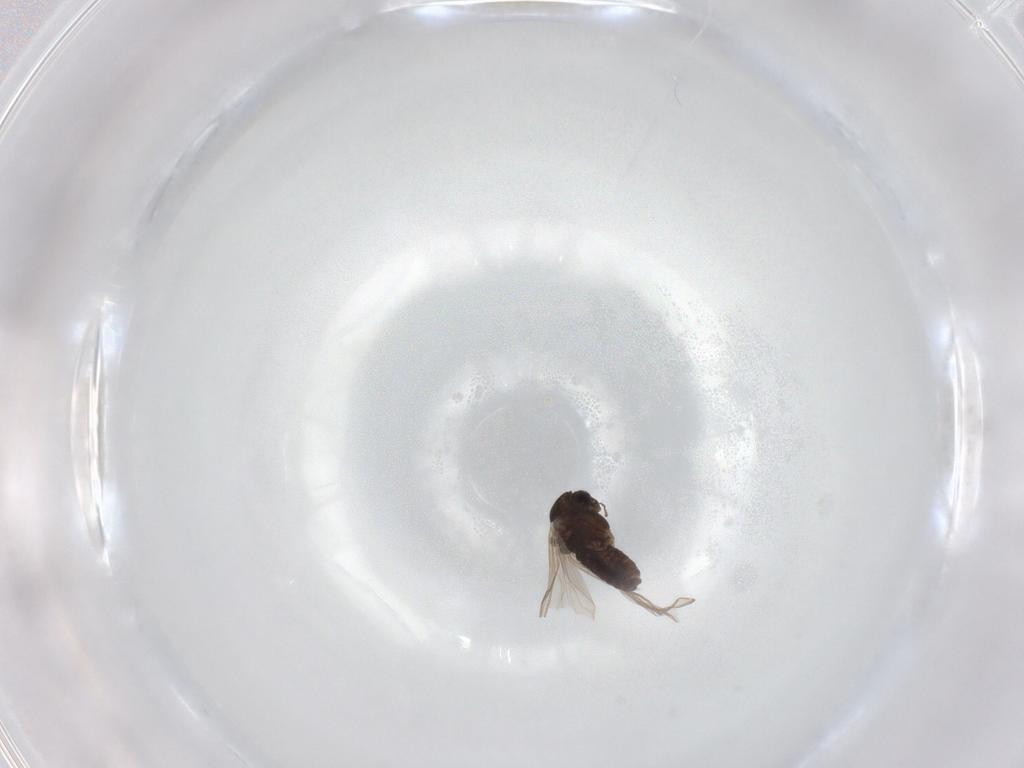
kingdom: Animalia
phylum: Arthropoda
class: Insecta
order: Diptera
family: Chironomidae
